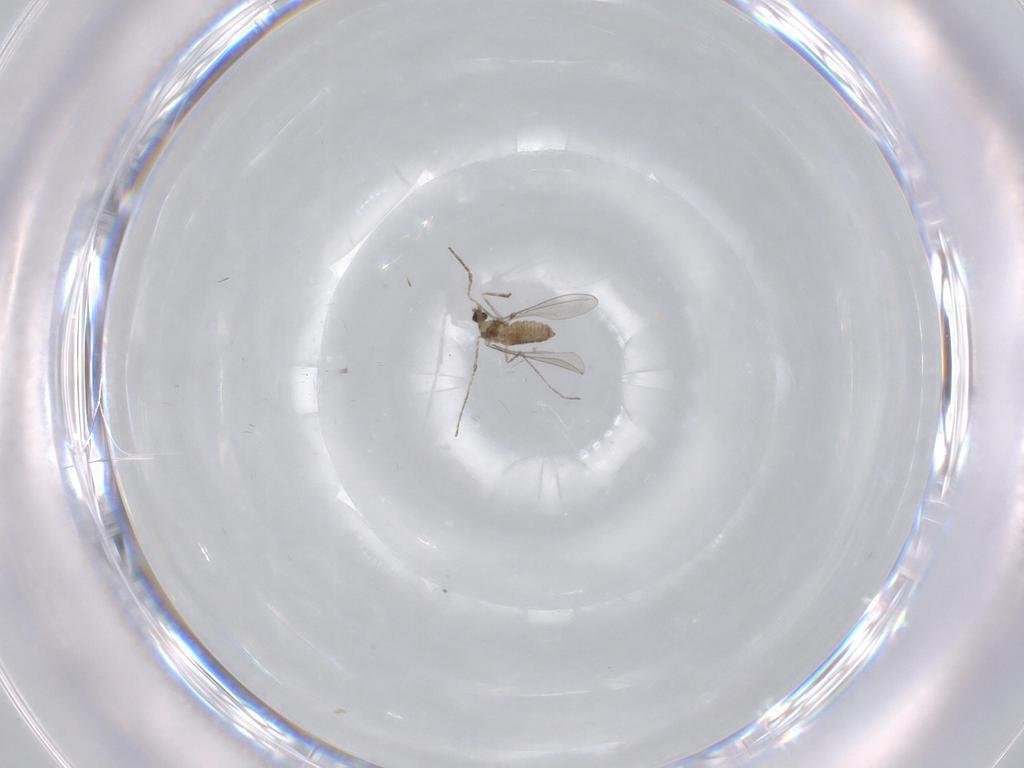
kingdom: Animalia
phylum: Arthropoda
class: Insecta
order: Diptera
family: Cecidomyiidae
